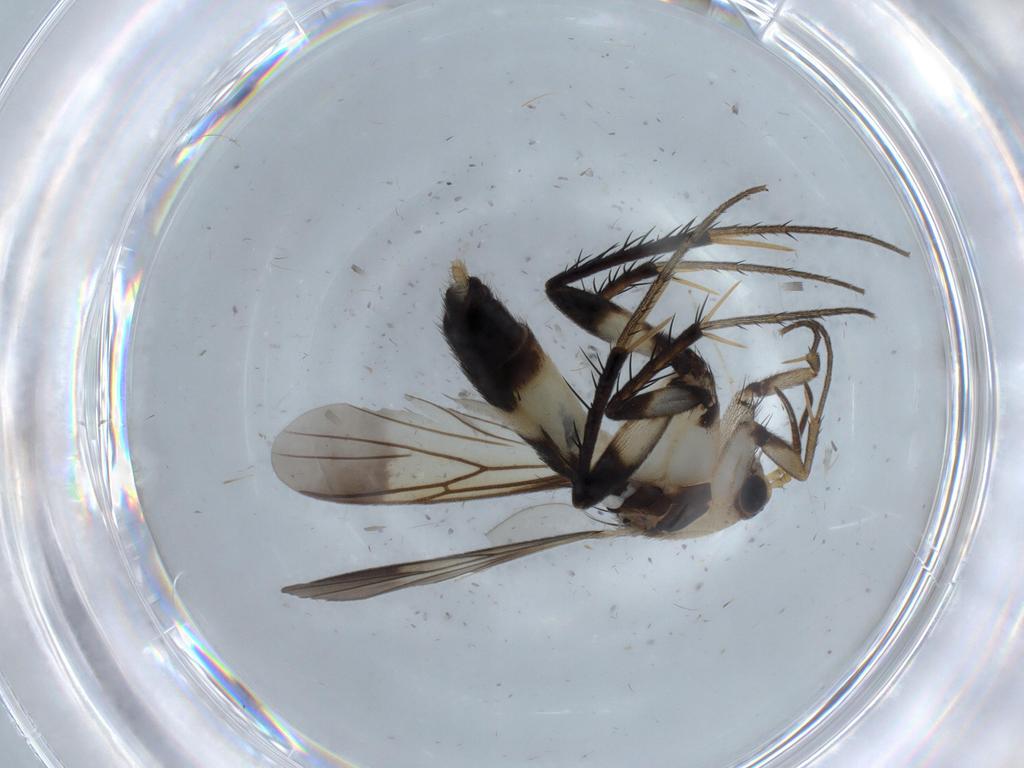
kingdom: Animalia
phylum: Arthropoda
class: Insecta
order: Diptera
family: Sphaeroceridae
